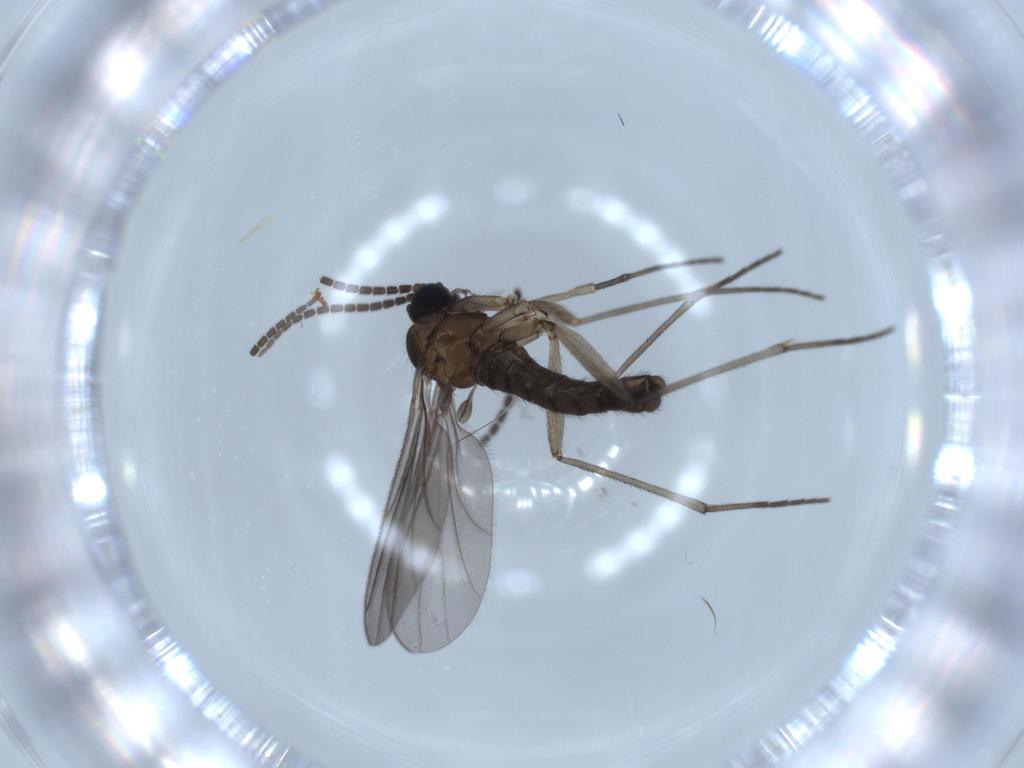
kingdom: Animalia
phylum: Arthropoda
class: Insecta
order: Diptera
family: Sciaridae
